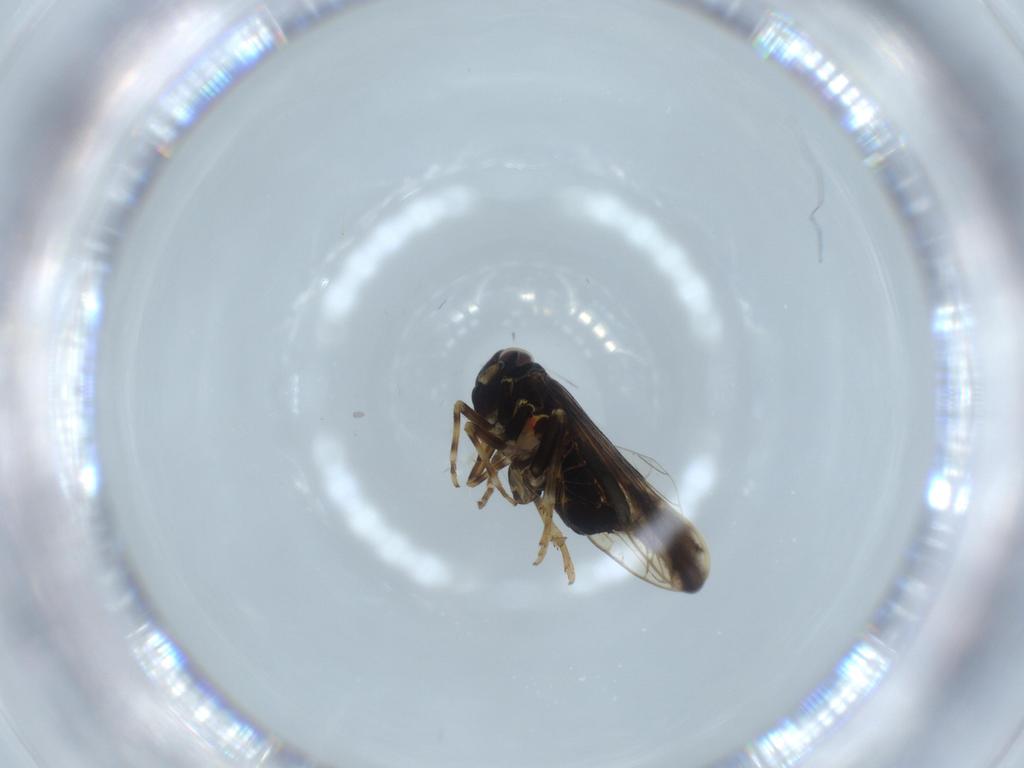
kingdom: Animalia
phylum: Arthropoda
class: Insecta
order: Hemiptera
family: Delphacidae
